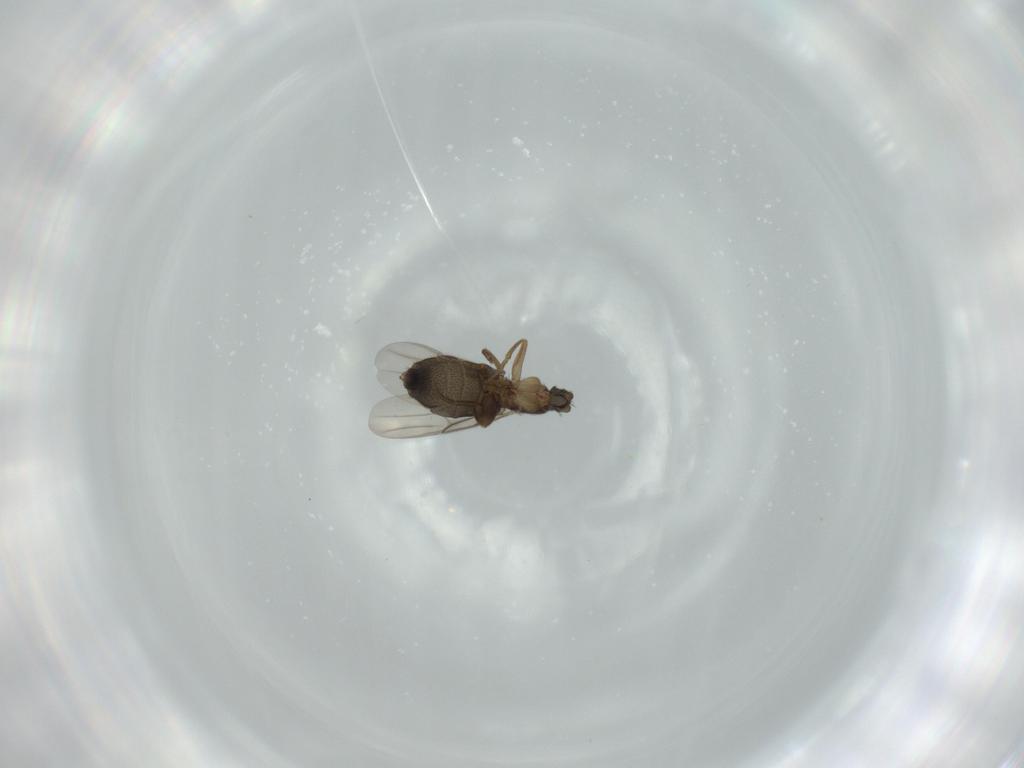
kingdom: Animalia
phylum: Arthropoda
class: Insecta
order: Diptera
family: Phoridae
